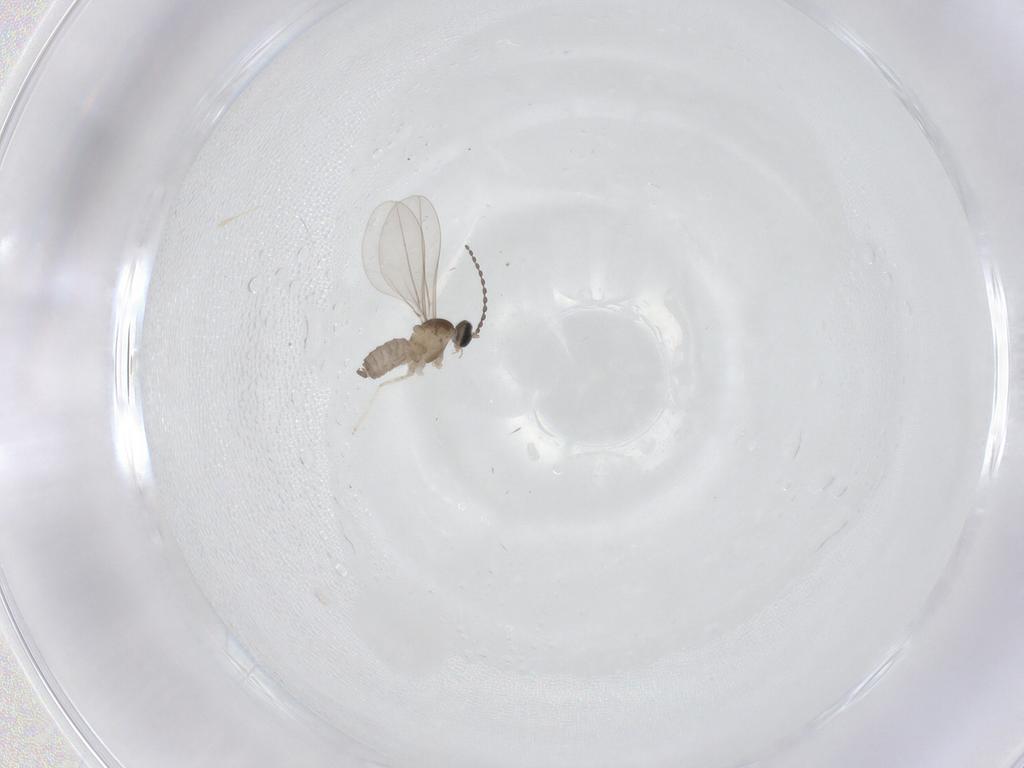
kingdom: Animalia
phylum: Arthropoda
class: Insecta
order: Diptera
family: Cecidomyiidae
